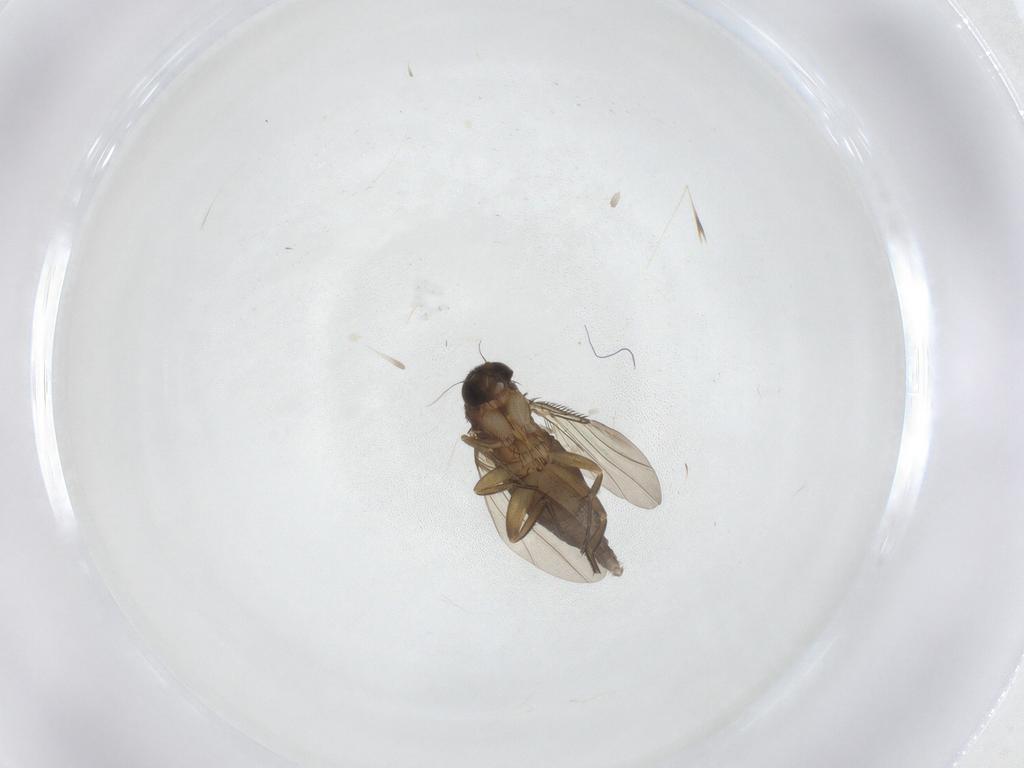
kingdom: Animalia
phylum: Arthropoda
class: Insecta
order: Diptera
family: Phoridae
